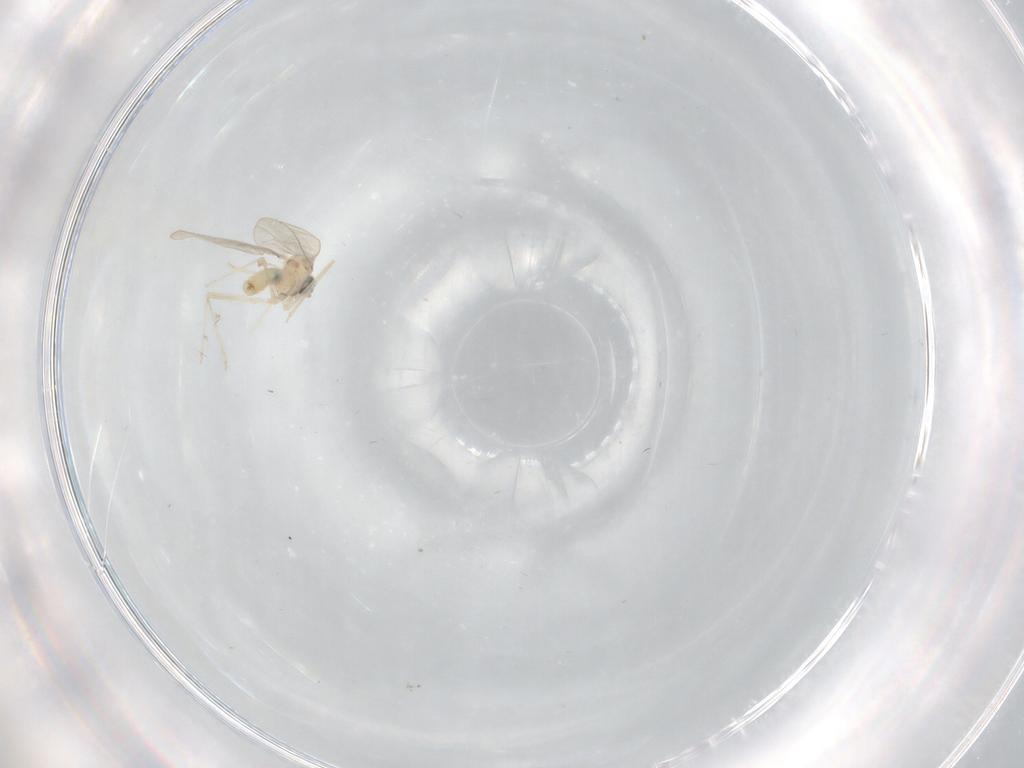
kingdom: Animalia
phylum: Arthropoda
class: Insecta
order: Diptera
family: Cecidomyiidae
